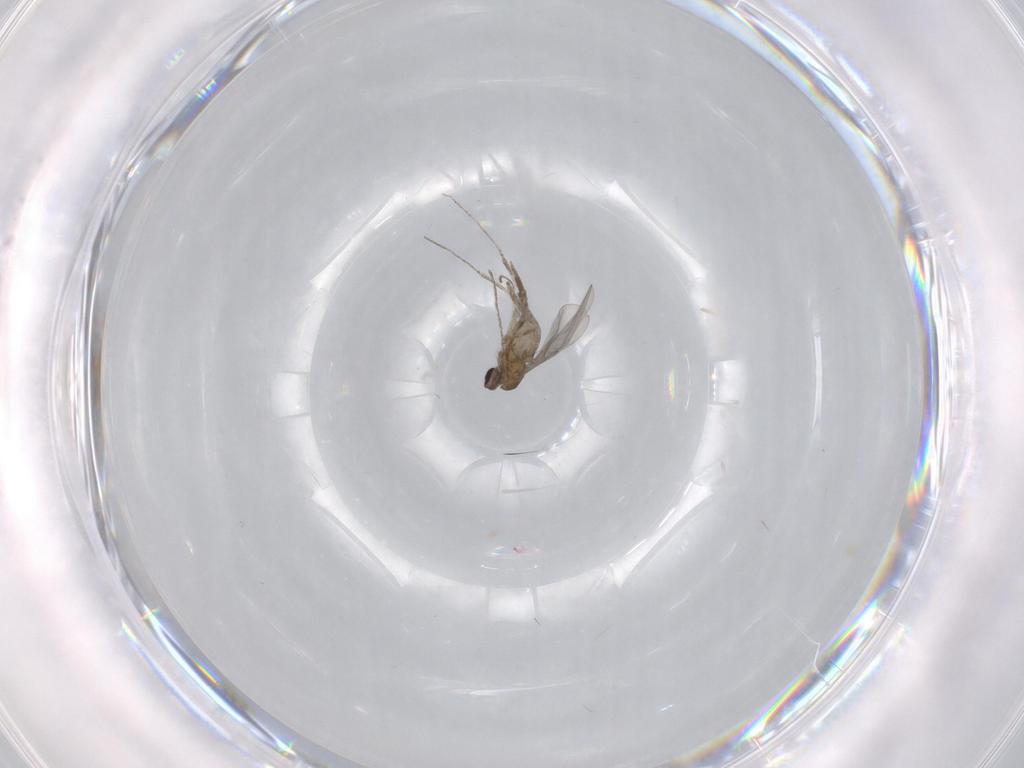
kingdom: Animalia
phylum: Arthropoda
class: Insecta
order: Diptera
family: Cecidomyiidae
